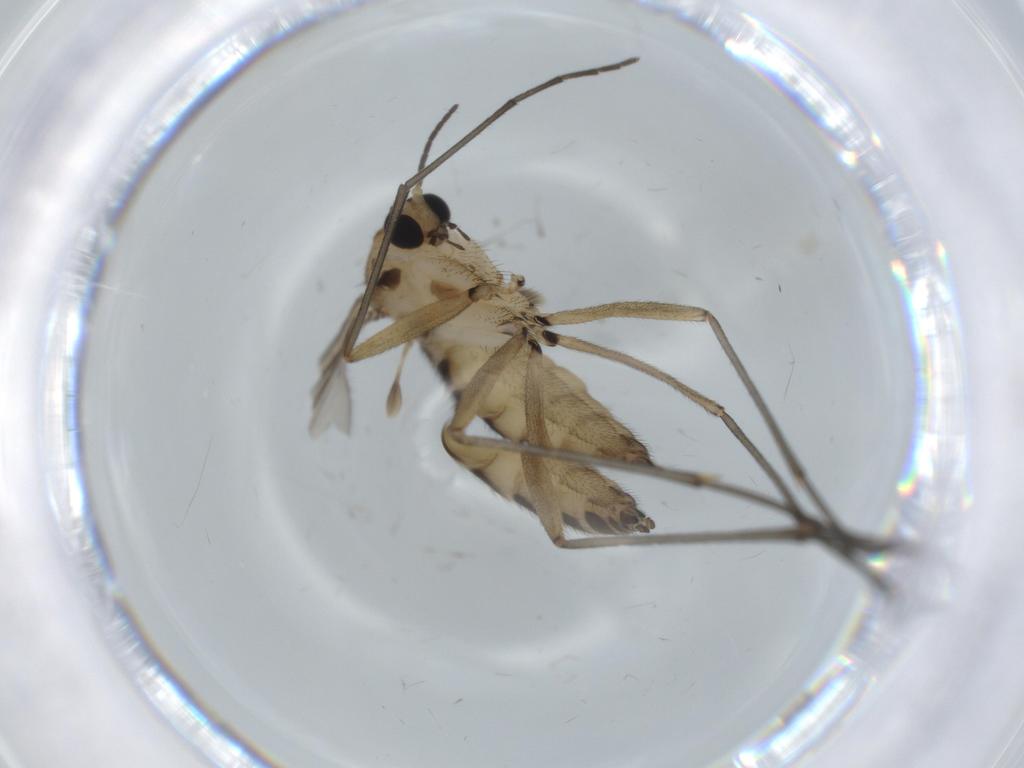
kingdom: Animalia
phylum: Arthropoda
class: Insecta
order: Diptera
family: Sciaridae
